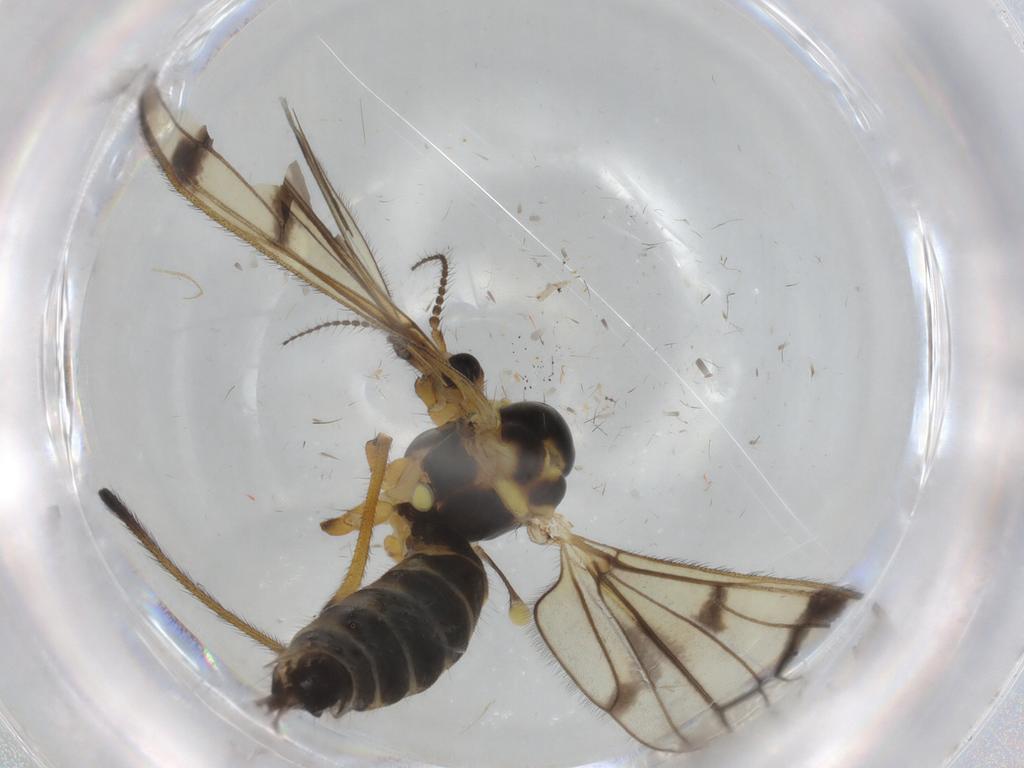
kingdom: Animalia
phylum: Arthropoda
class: Insecta
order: Diptera
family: Limoniidae
